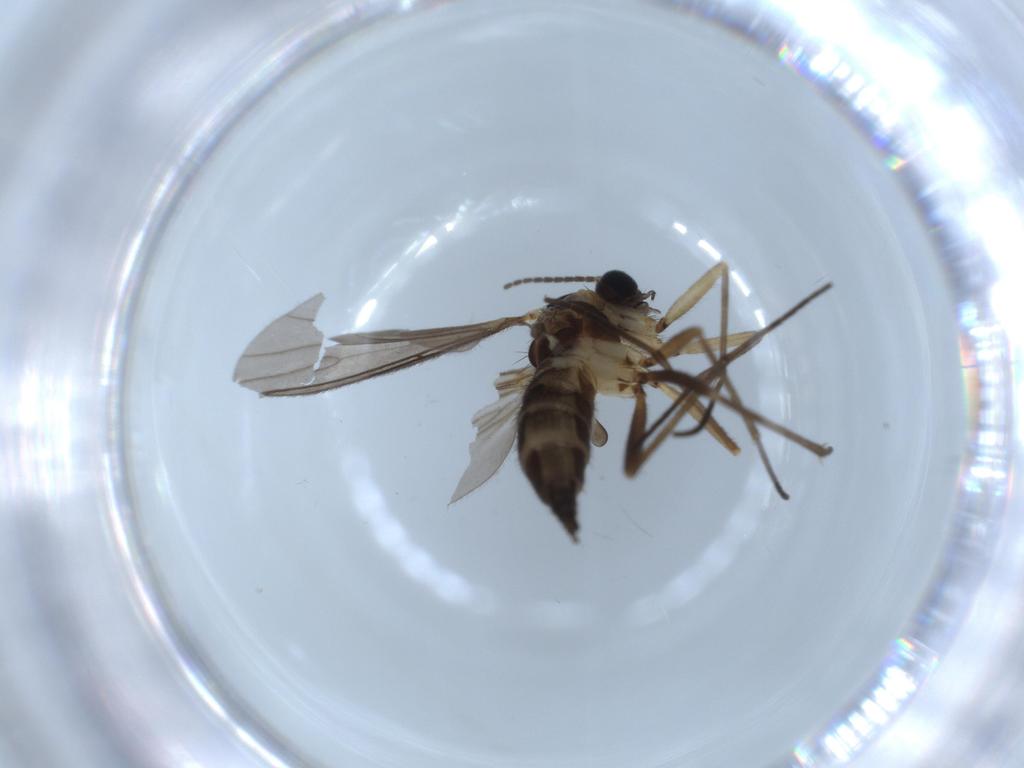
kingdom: Animalia
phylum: Arthropoda
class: Insecta
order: Diptera
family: Sciaridae
